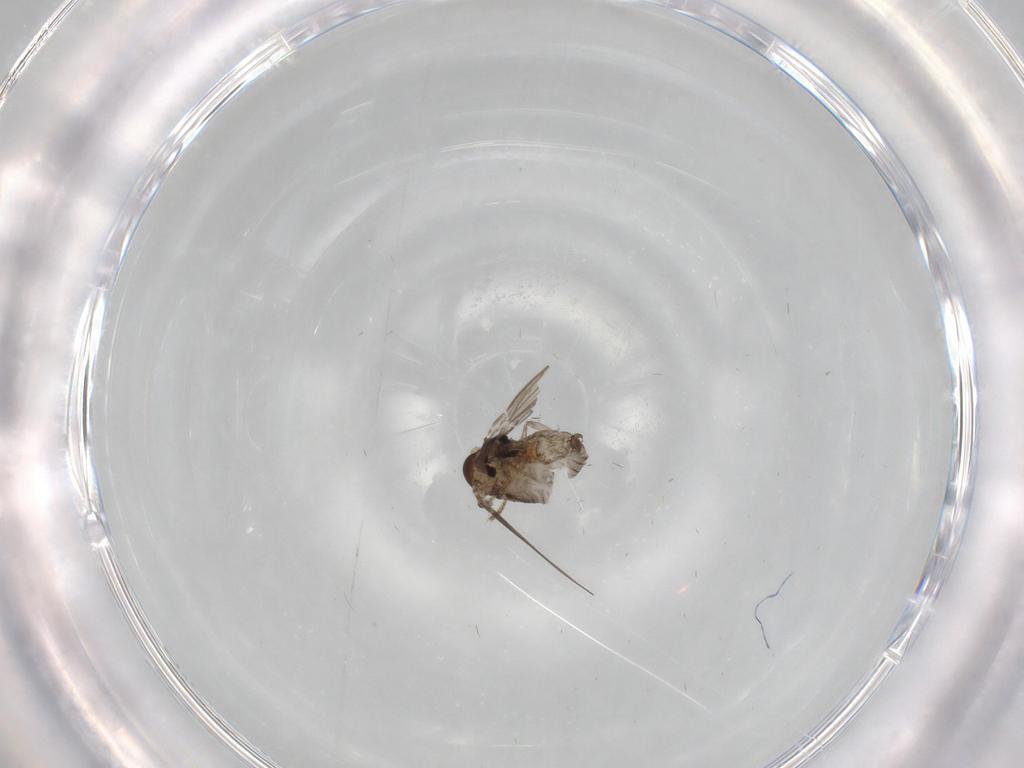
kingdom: Animalia
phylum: Arthropoda
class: Insecta
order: Diptera
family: Psychodidae
